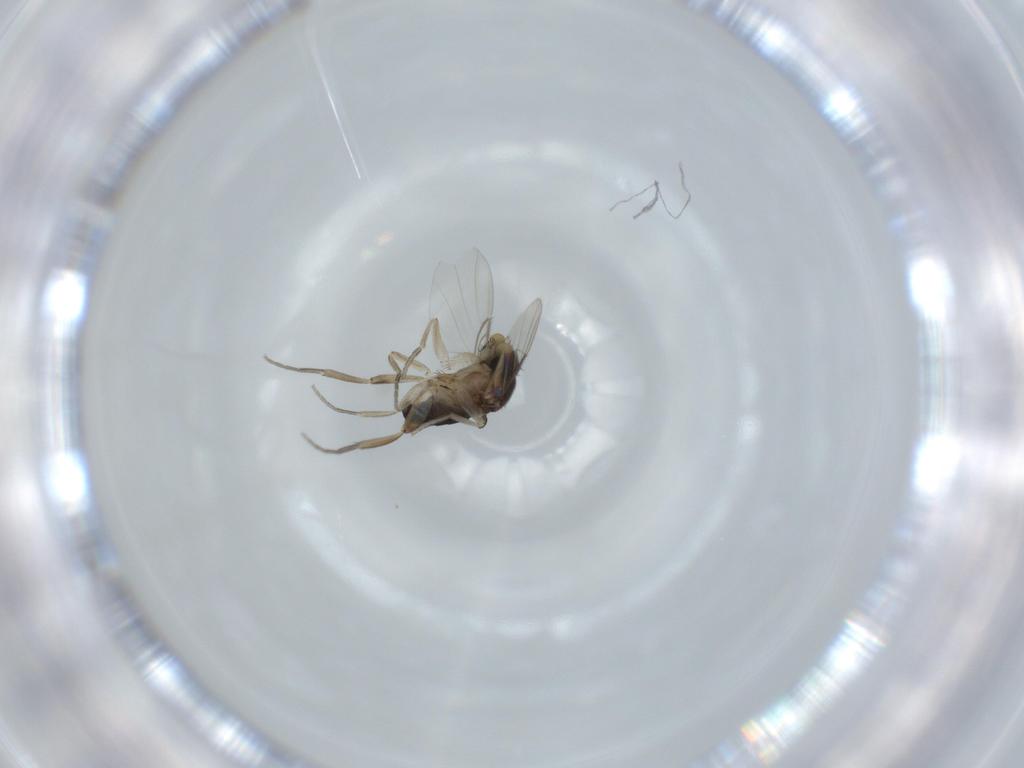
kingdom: Animalia
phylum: Arthropoda
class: Insecta
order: Diptera
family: Phoridae
